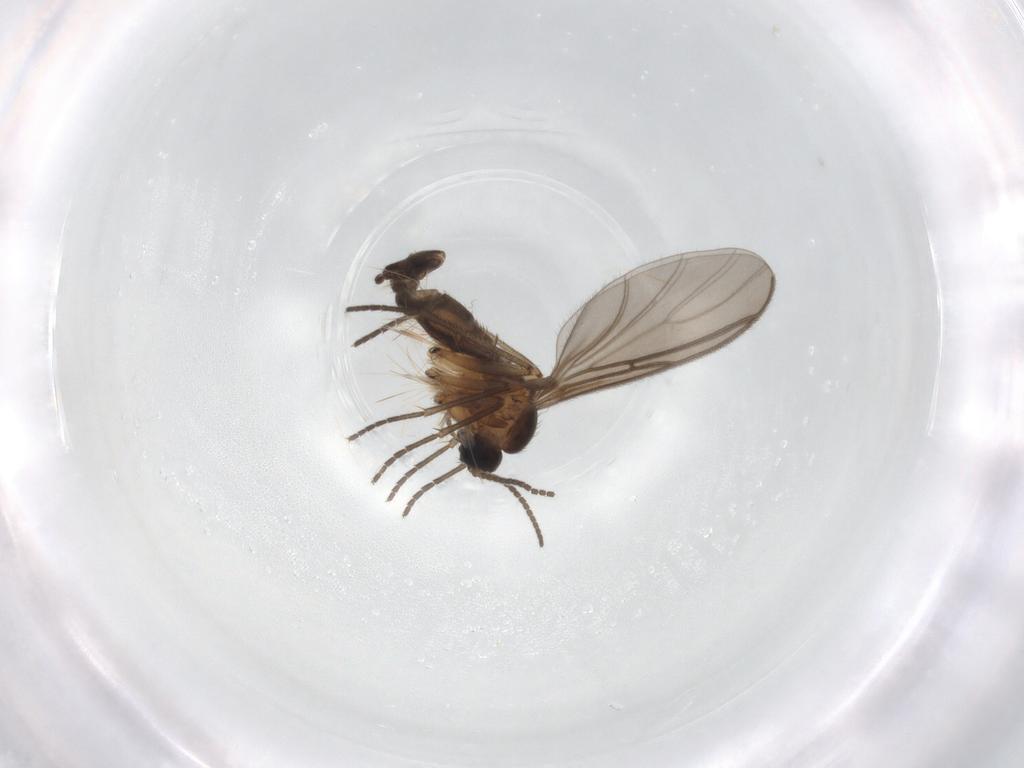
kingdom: Animalia
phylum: Arthropoda
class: Insecta
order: Diptera
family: Sciaridae
